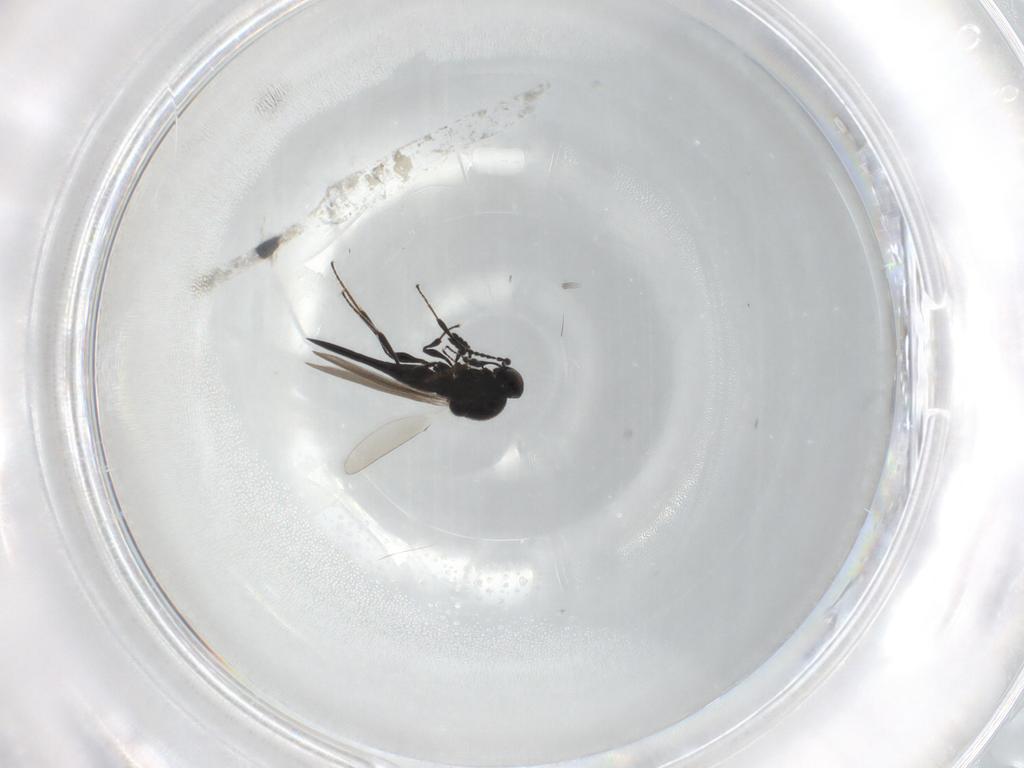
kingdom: Animalia
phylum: Arthropoda
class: Insecta
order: Hymenoptera
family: Platygastridae
